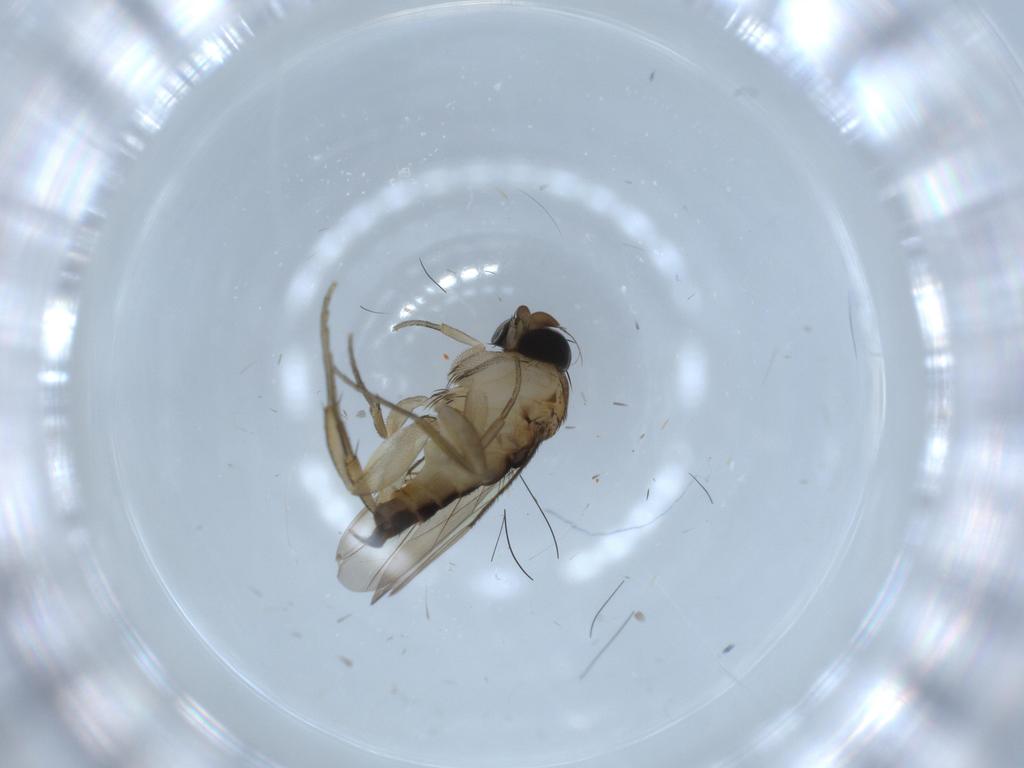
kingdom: Animalia
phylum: Arthropoda
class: Insecta
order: Diptera
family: Phoridae
